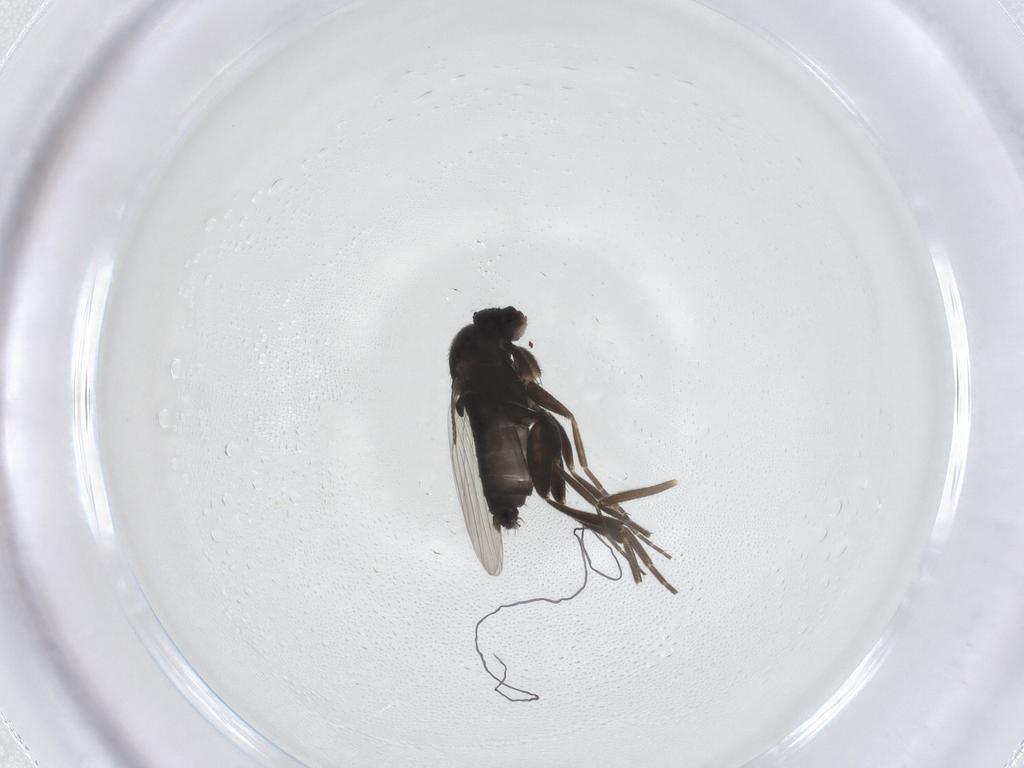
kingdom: Animalia
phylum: Arthropoda
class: Insecta
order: Diptera
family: Phoridae
